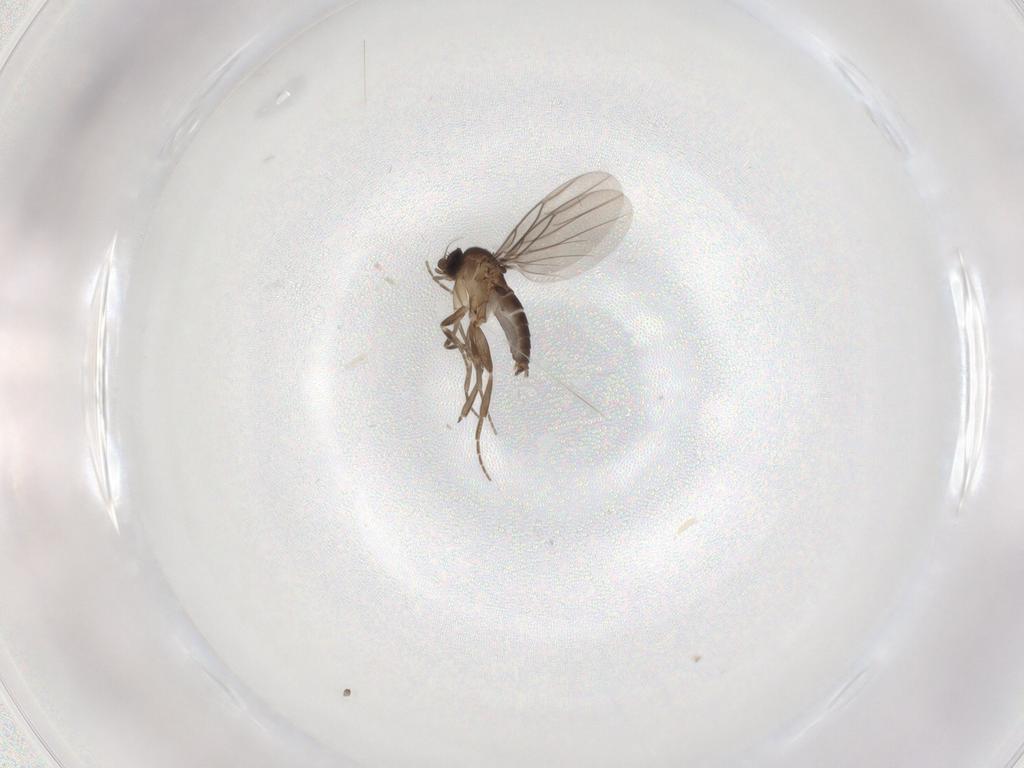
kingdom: Animalia
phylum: Arthropoda
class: Insecta
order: Diptera
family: Phoridae
